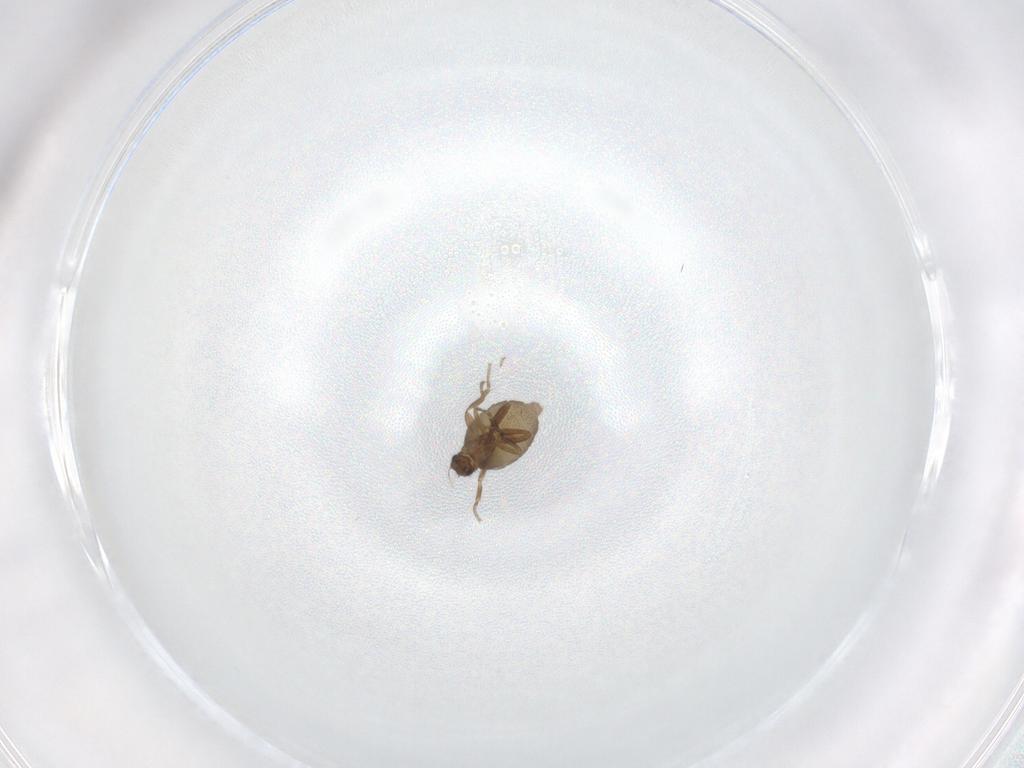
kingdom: Animalia
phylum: Arthropoda
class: Insecta
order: Diptera
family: Phoridae
